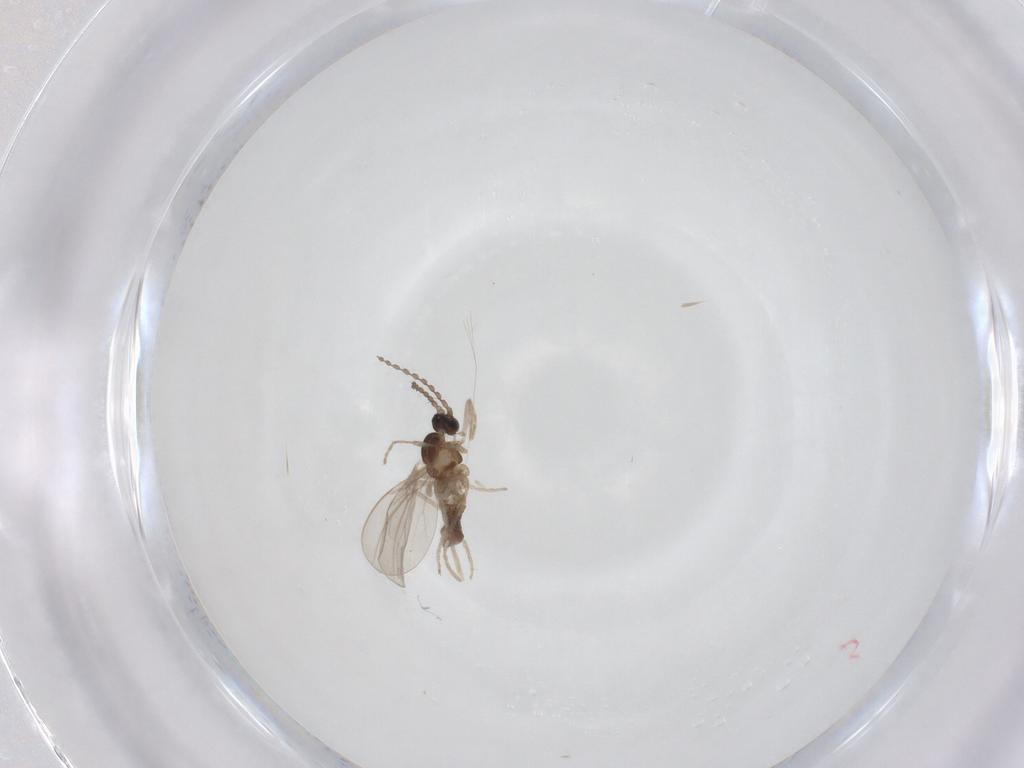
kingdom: Animalia
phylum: Arthropoda
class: Insecta
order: Diptera
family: Cecidomyiidae
